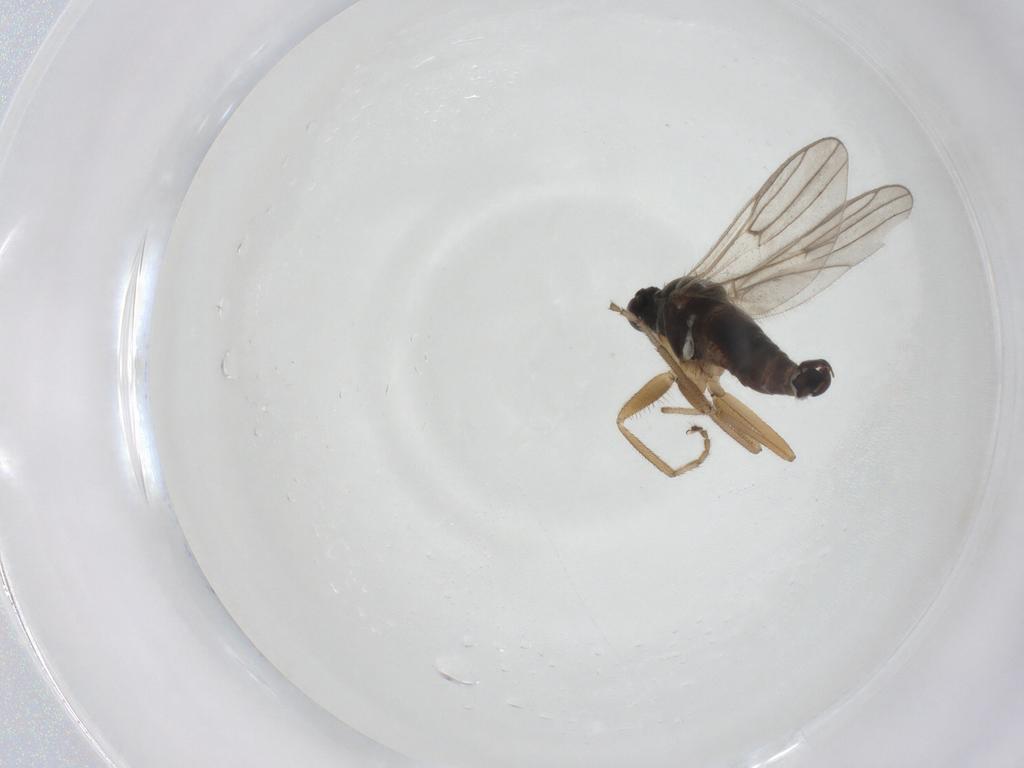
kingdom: Animalia
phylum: Arthropoda
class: Insecta
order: Diptera
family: Hybotidae
